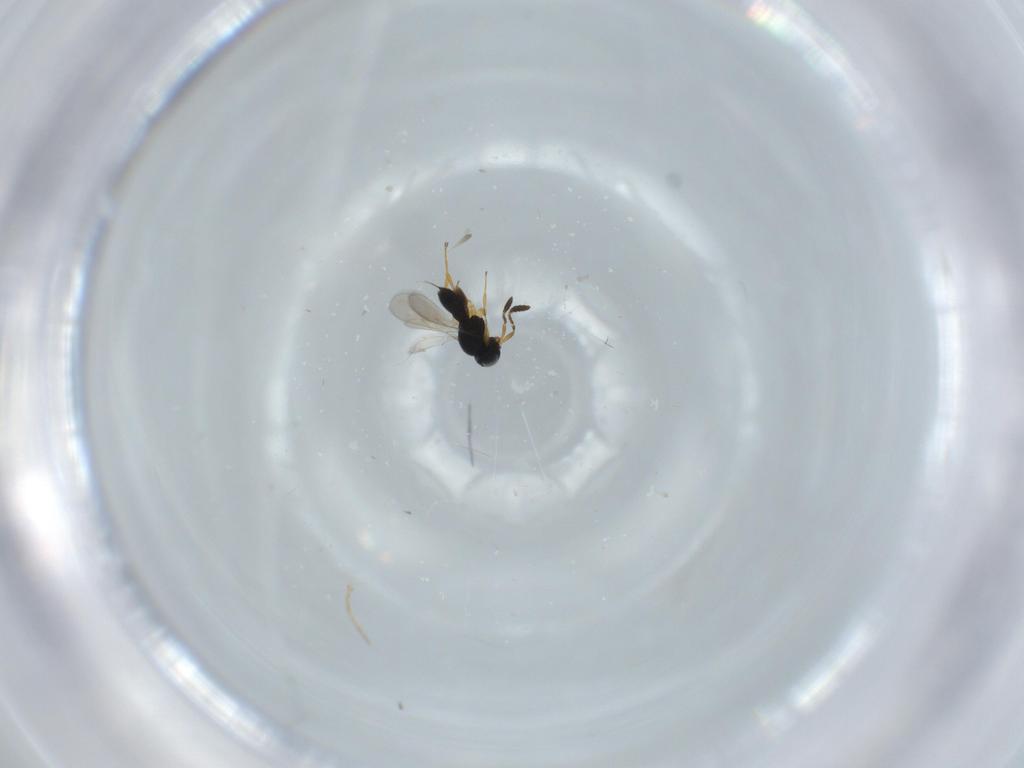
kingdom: Animalia
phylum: Arthropoda
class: Insecta
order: Hymenoptera
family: Scelionidae
